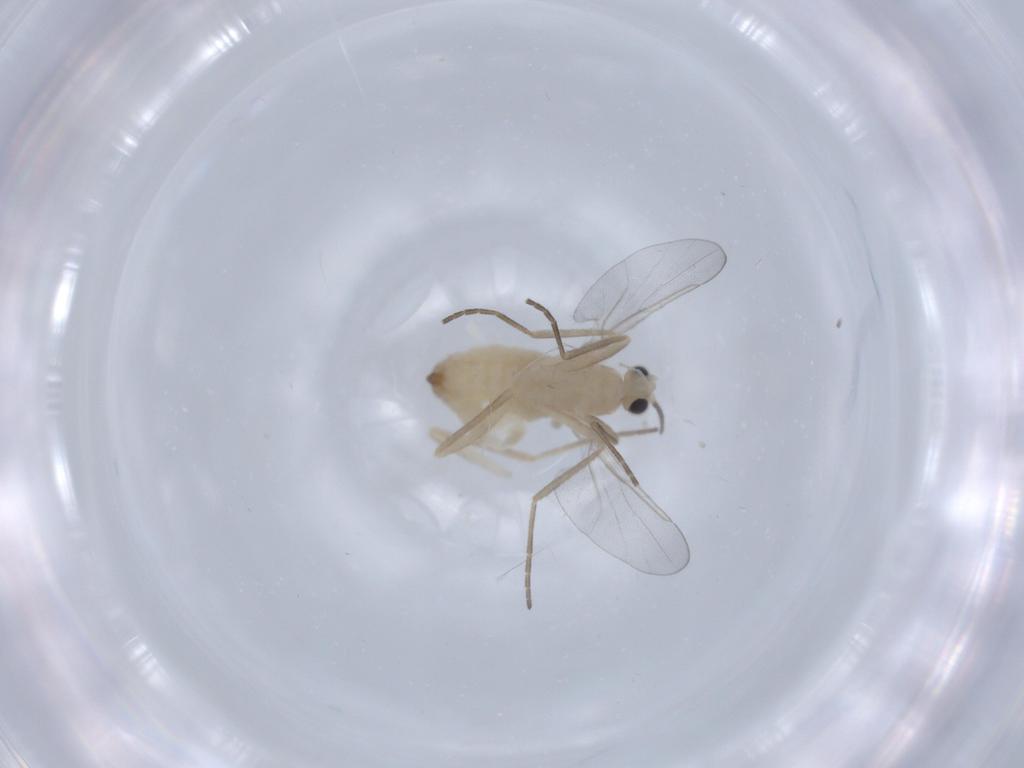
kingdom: Animalia
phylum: Arthropoda
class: Insecta
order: Diptera
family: Cecidomyiidae
